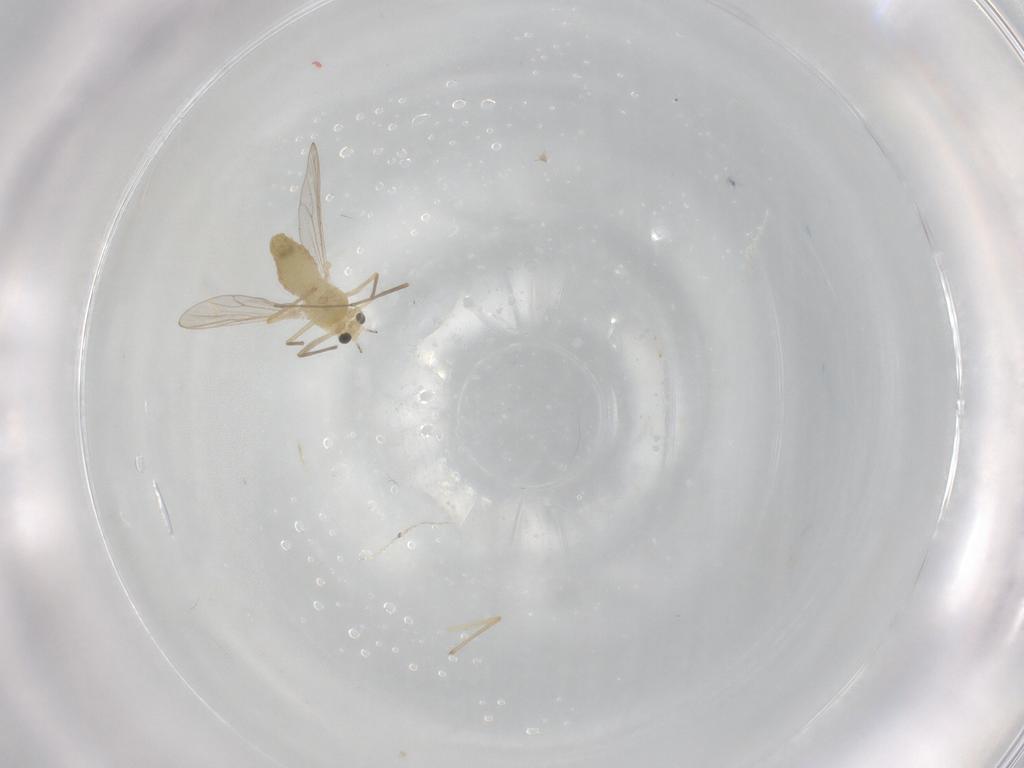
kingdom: Animalia
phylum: Arthropoda
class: Insecta
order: Diptera
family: Chironomidae
